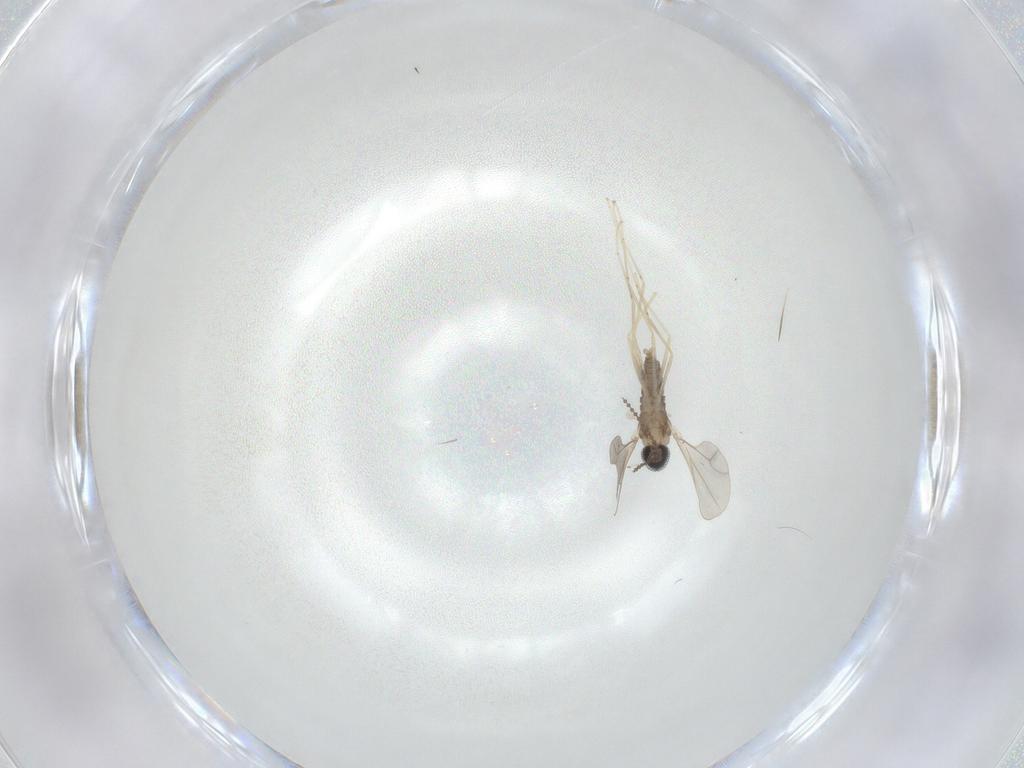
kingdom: Animalia
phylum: Arthropoda
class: Insecta
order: Diptera
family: Cecidomyiidae
